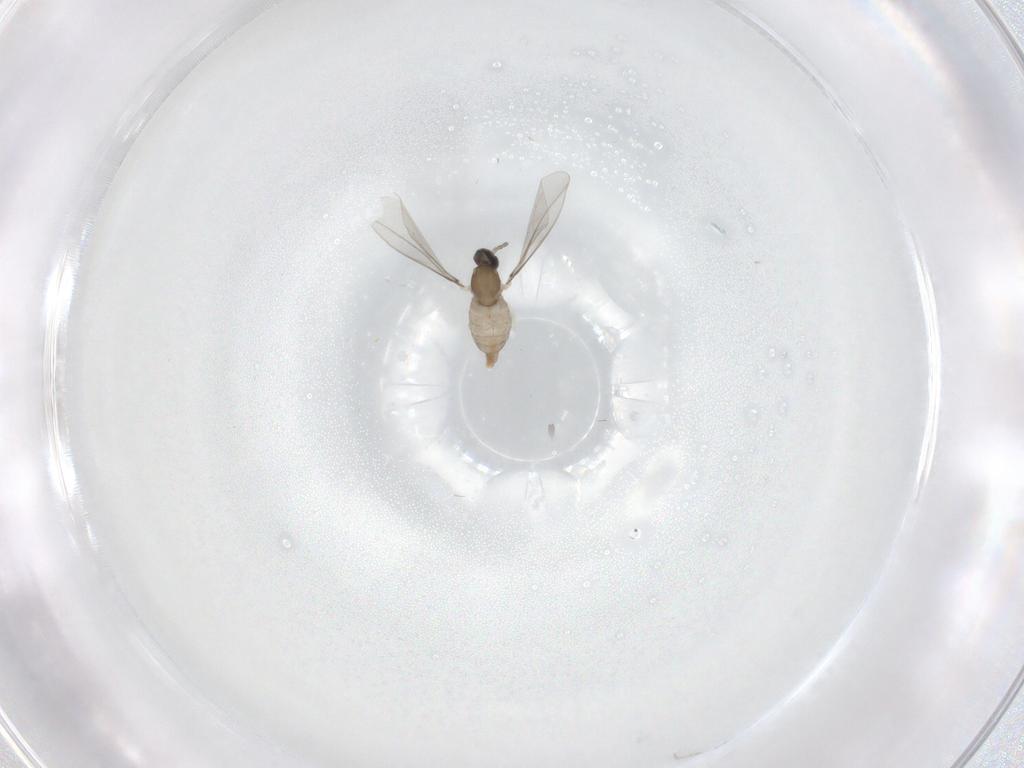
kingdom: Animalia
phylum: Arthropoda
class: Insecta
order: Diptera
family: Cecidomyiidae
